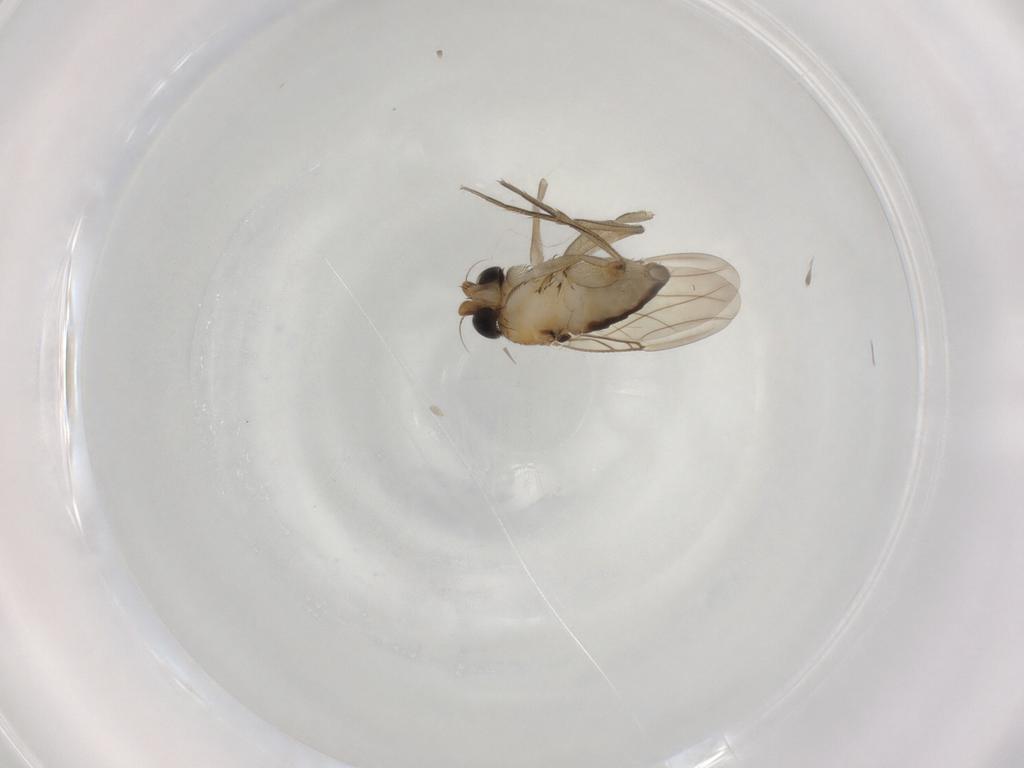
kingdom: Animalia
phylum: Arthropoda
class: Insecta
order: Diptera
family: Phoridae
